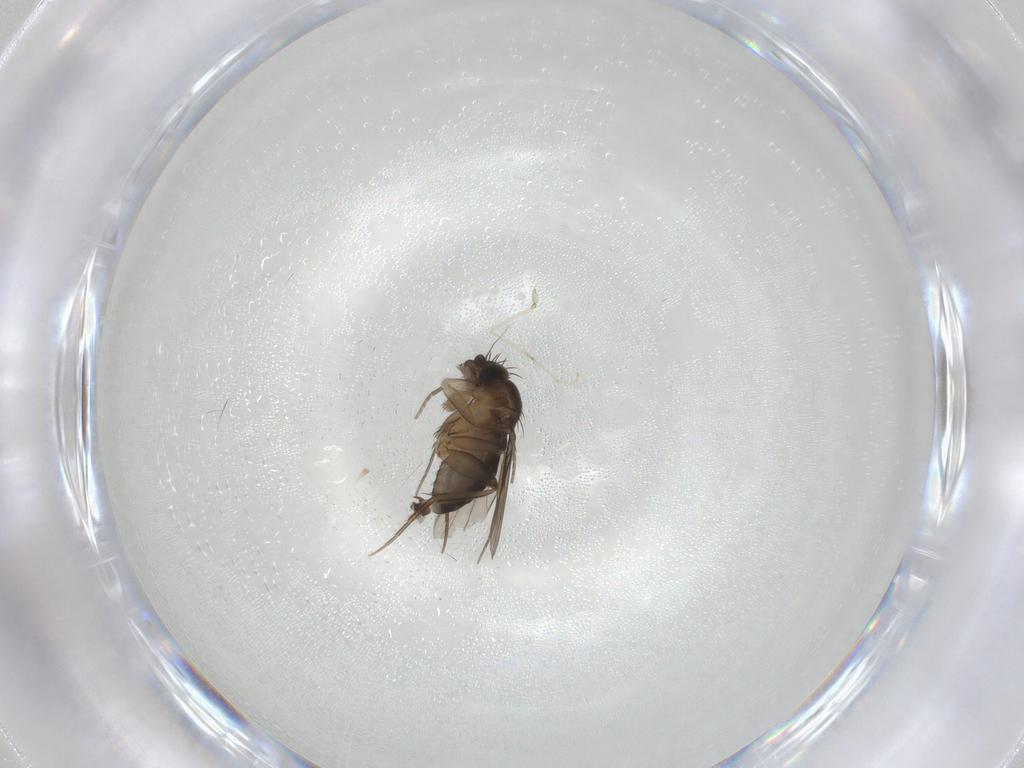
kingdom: Animalia
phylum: Arthropoda
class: Insecta
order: Diptera
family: Phoridae
